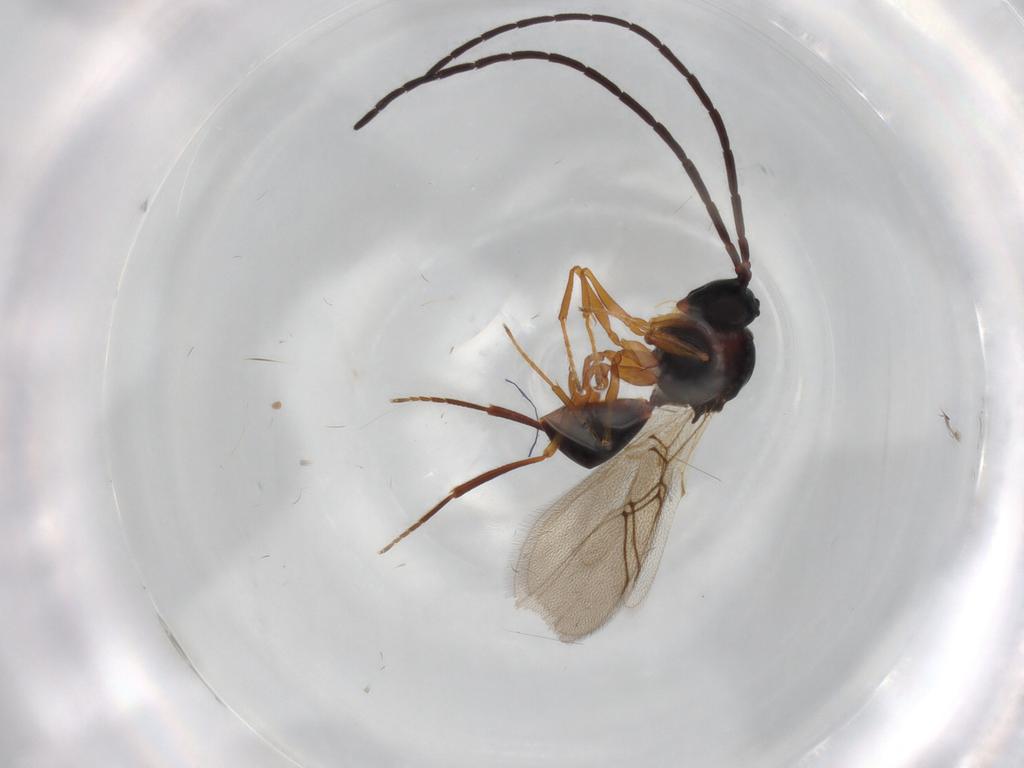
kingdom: Animalia
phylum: Arthropoda
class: Insecta
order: Hymenoptera
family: Figitidae
